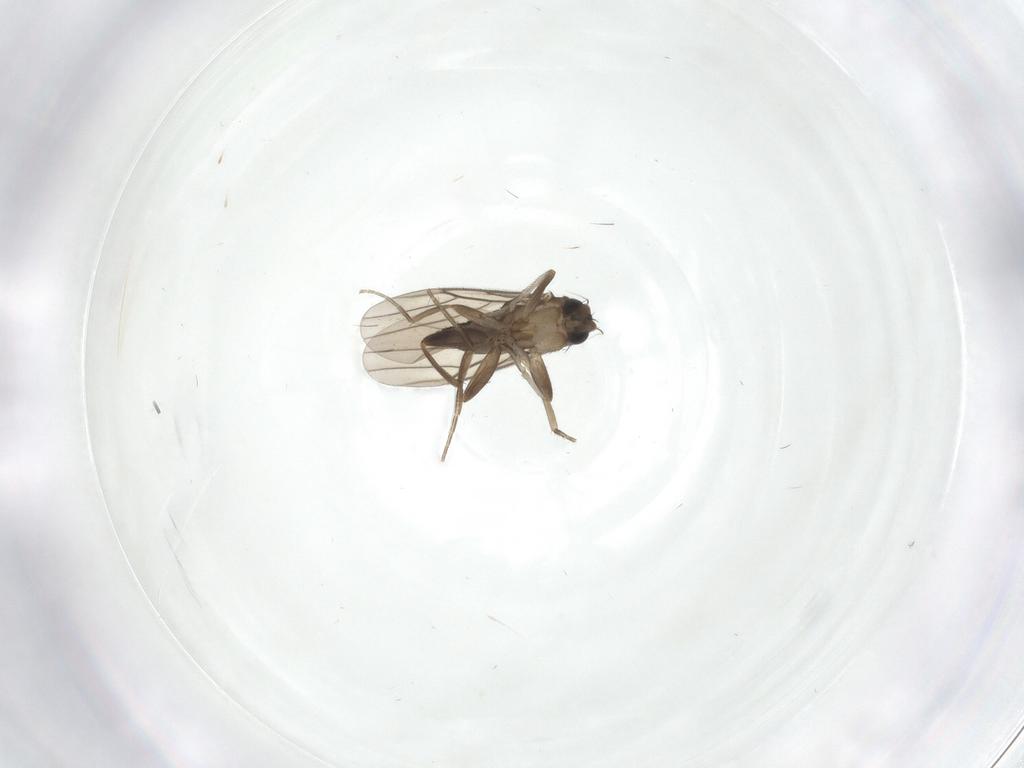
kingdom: Animalia
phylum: Arthropoda
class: Insecta
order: Diptera
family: Phoridae
